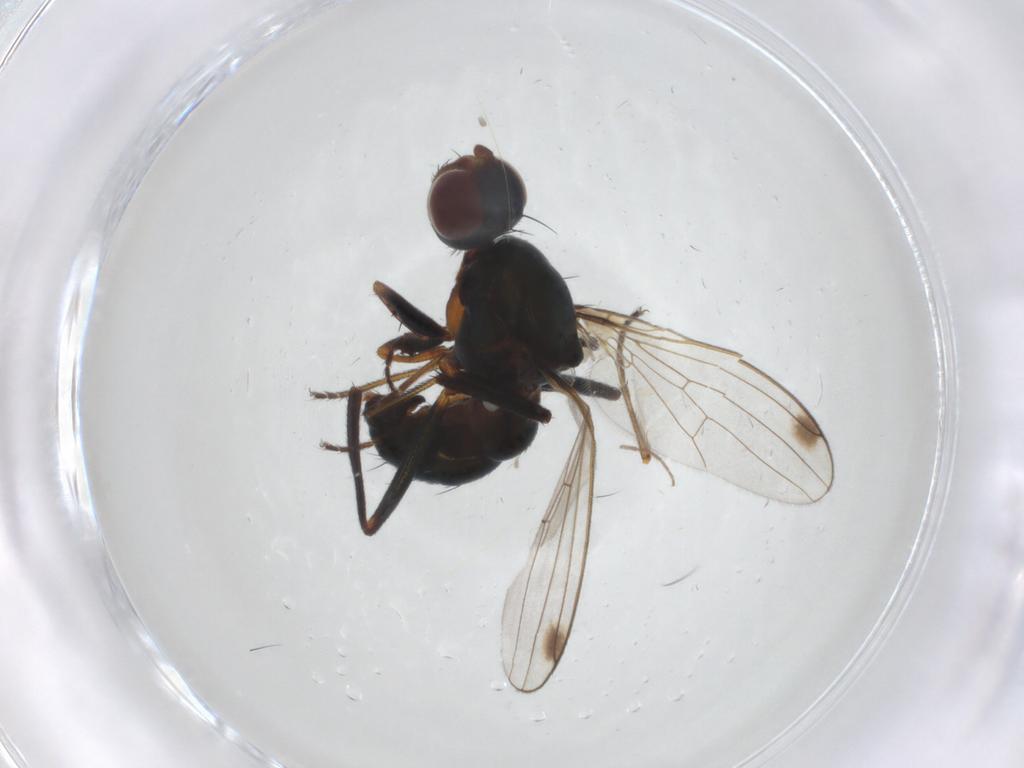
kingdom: Animalia
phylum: Arthropoda
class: Insecta
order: Diptera
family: Sepsidae
